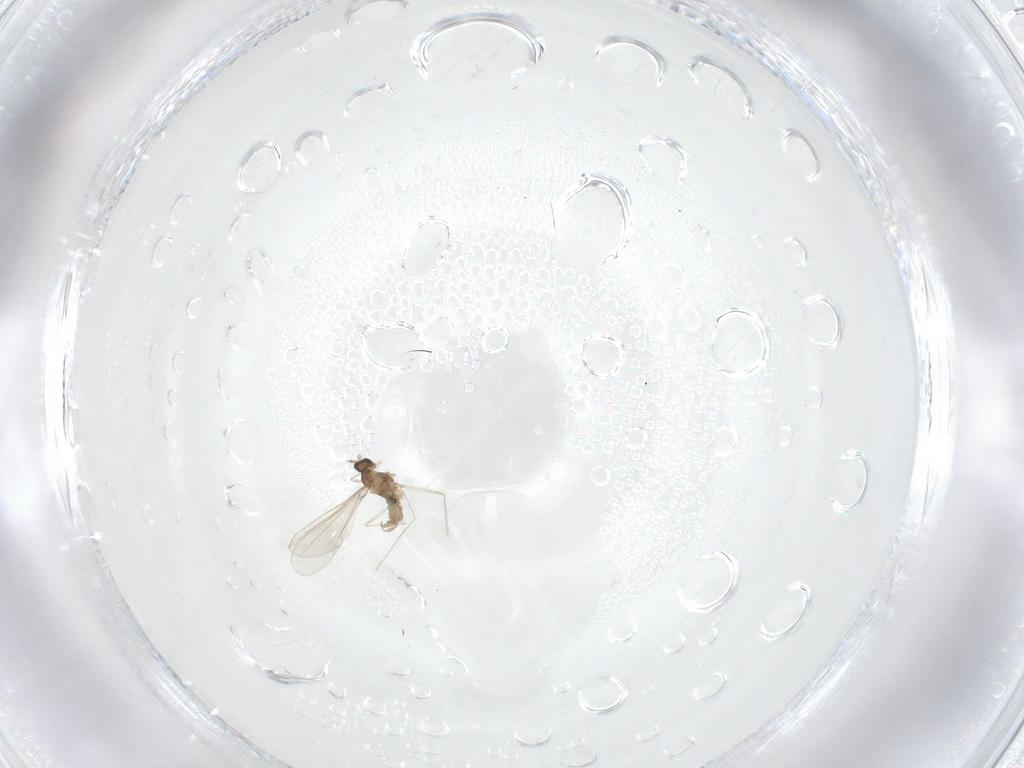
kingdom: Animalia
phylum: Arthropoda
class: Insecta
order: Diptera
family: Cecidomyiidae
